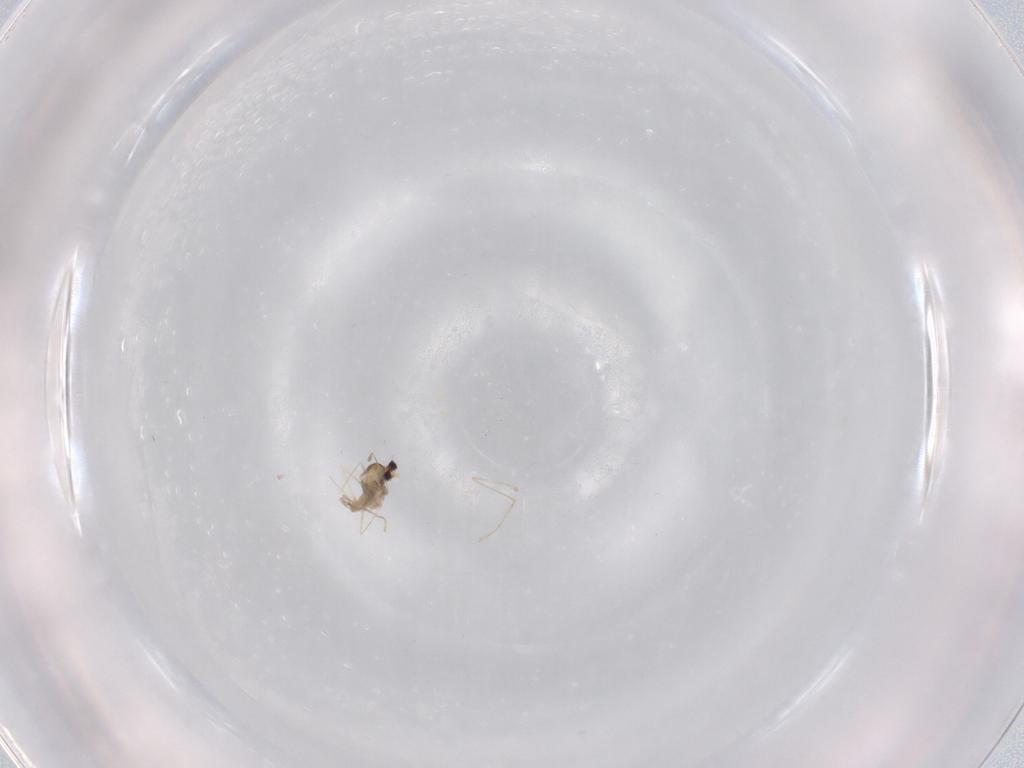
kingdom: Animalia
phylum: Arthropoda
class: Insecta
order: Diptera
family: Cecidomyiidae
